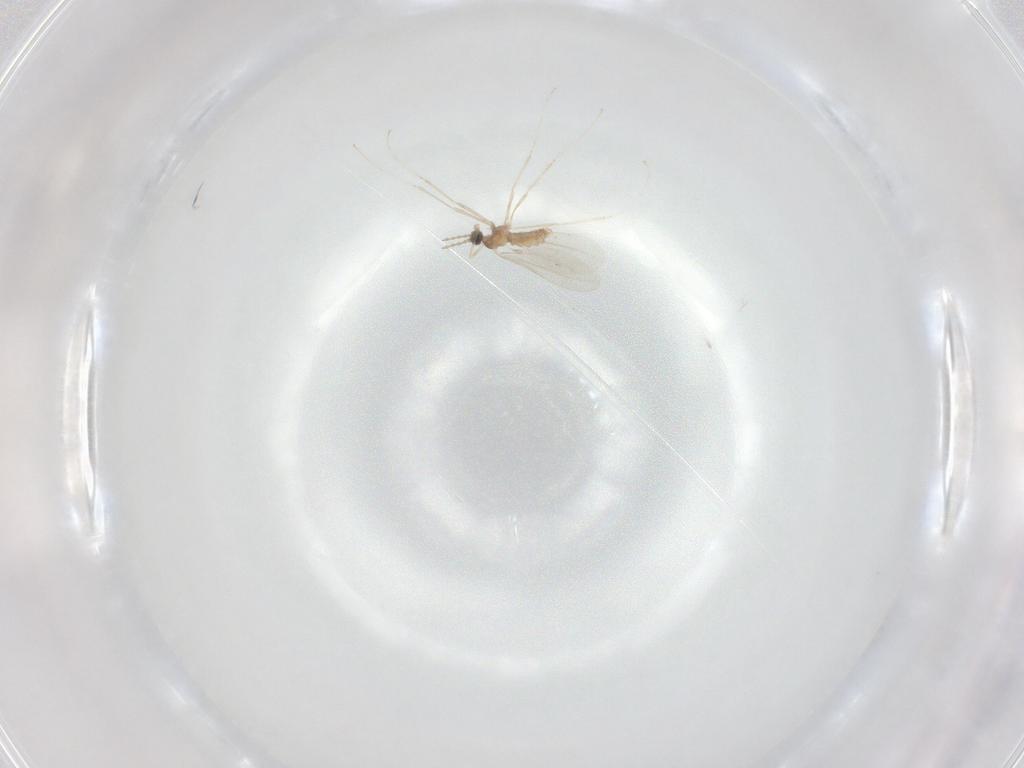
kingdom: Animalia
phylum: Arthropoda
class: Insecta
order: Diptera
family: Cecidomyiidae
